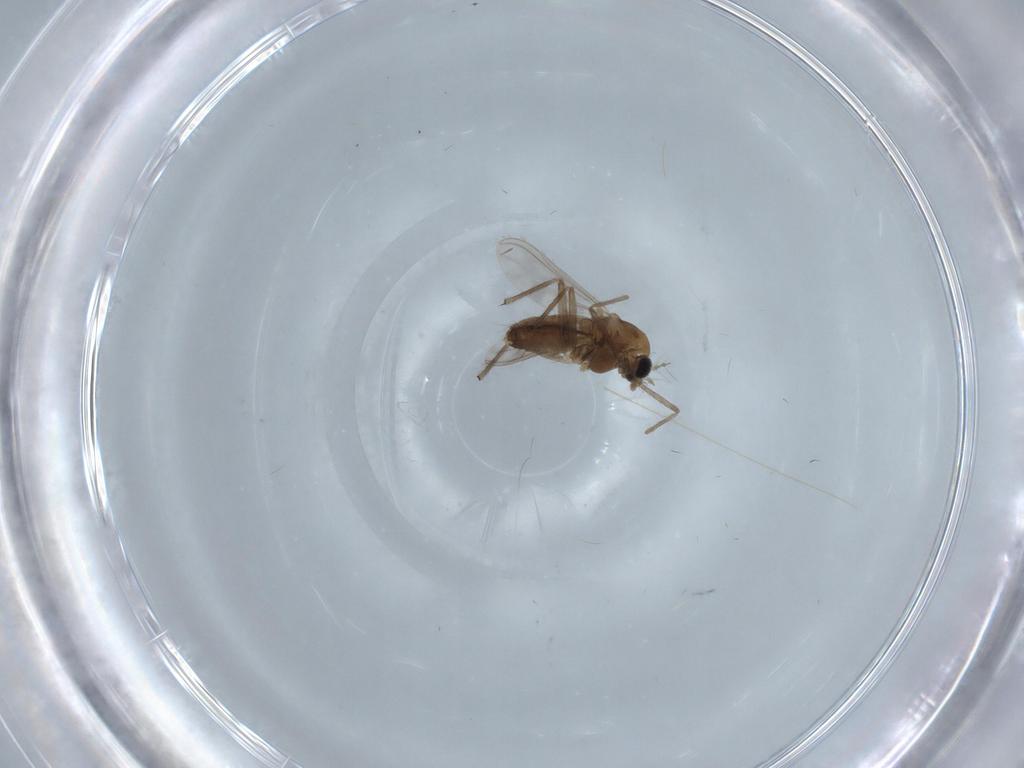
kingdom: Animalia
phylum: Arthropoda
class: Insecta
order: Diptera
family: Chironomidae
